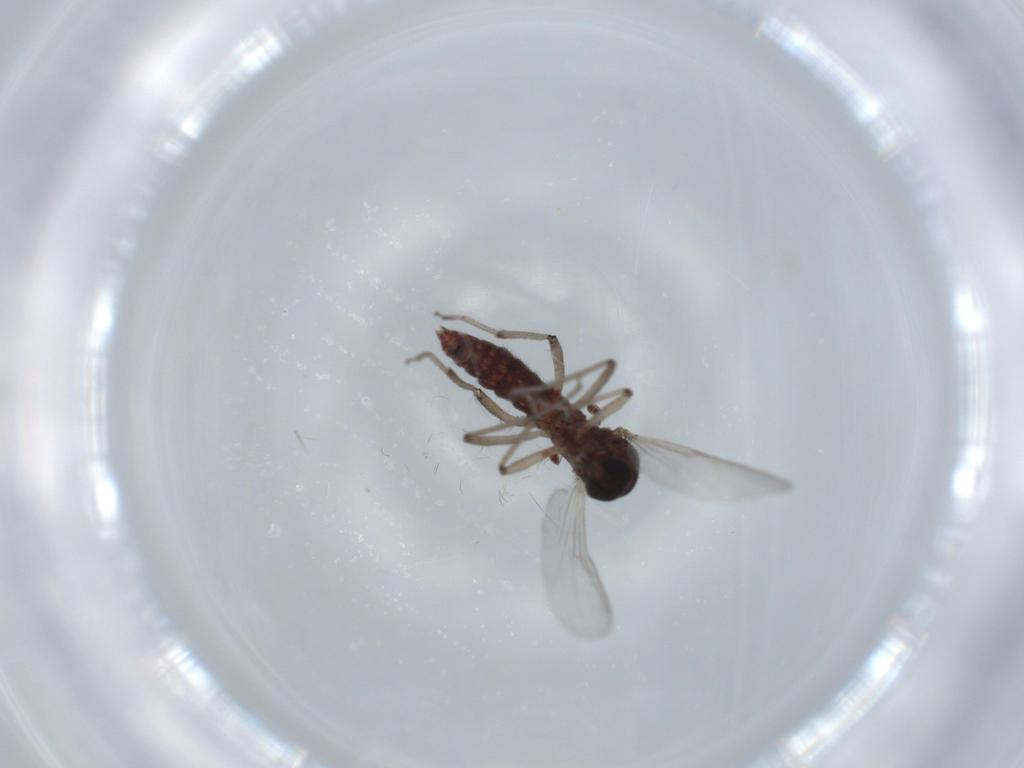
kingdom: Animalia
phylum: Arthropoda
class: Insecta
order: Diptera
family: Ceratopogonidae
